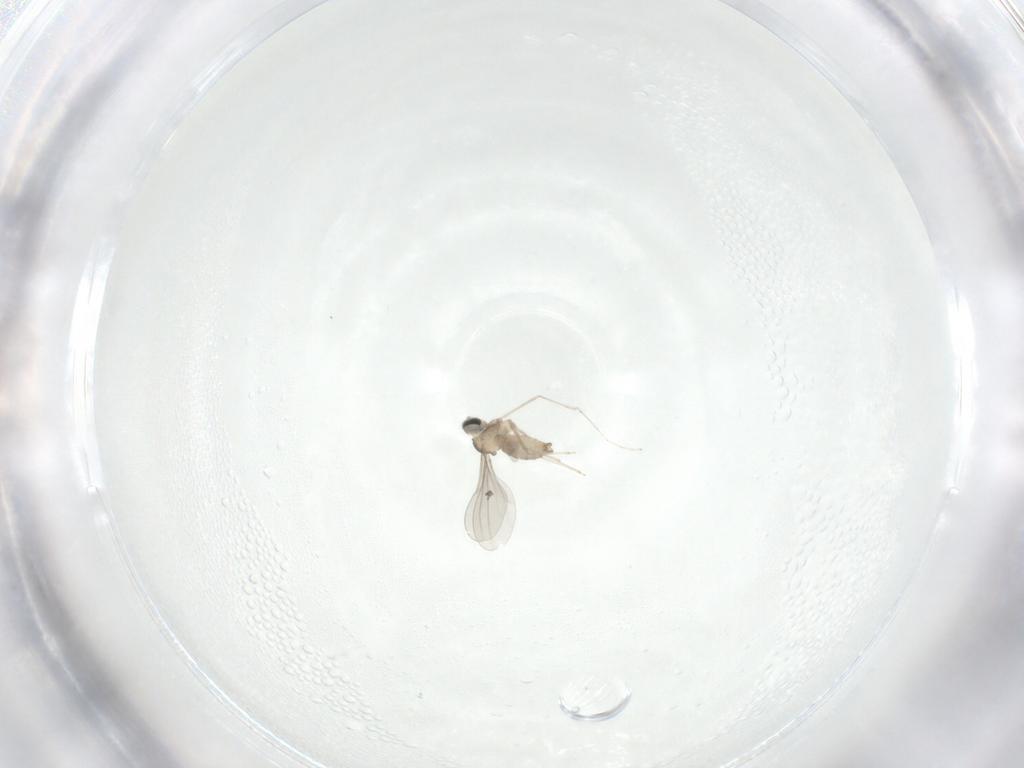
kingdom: Animalia
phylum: Arthropoda
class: Insecta
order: Diptera
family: Cecidomyiidae
